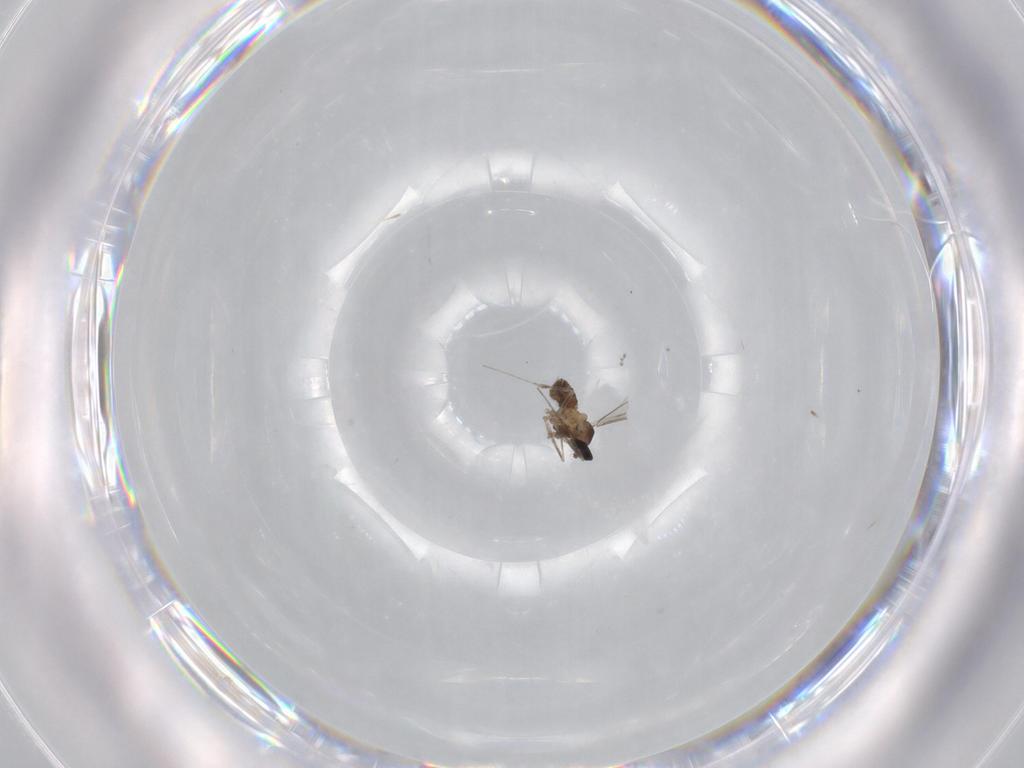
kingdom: Animalia
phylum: Arthropoda
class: Insecta
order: Diptera
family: Cecidomyiidae
